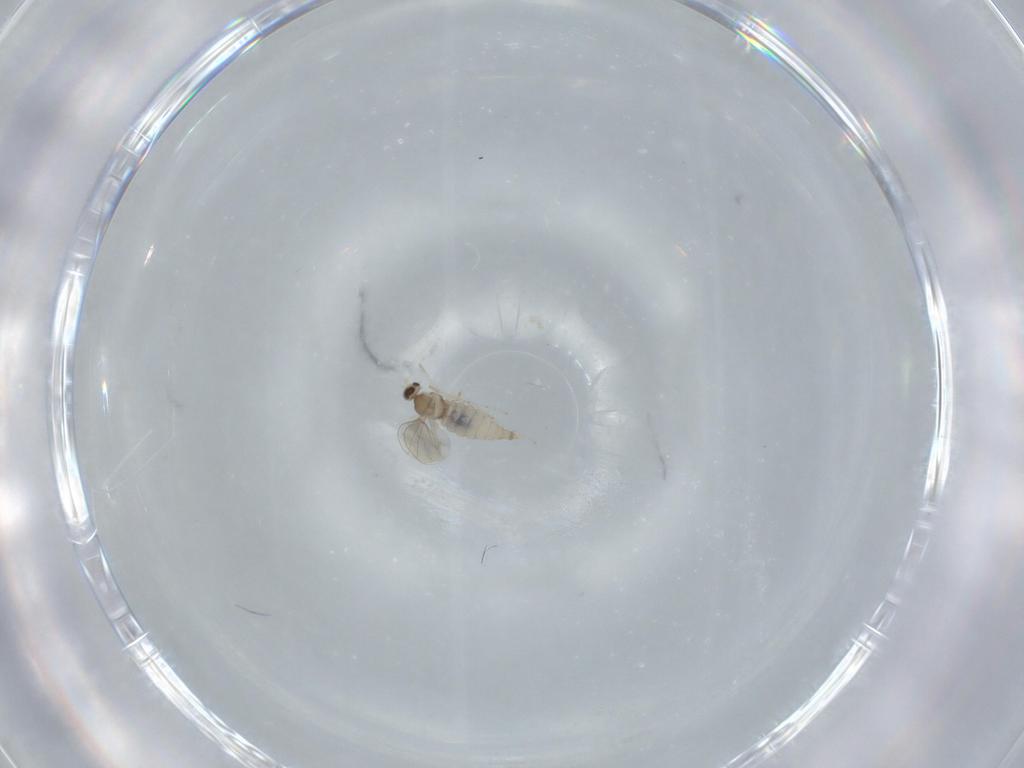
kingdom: Animalia
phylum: Arthropoda
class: Insecta
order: Diptera
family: Cecidomyiidae
